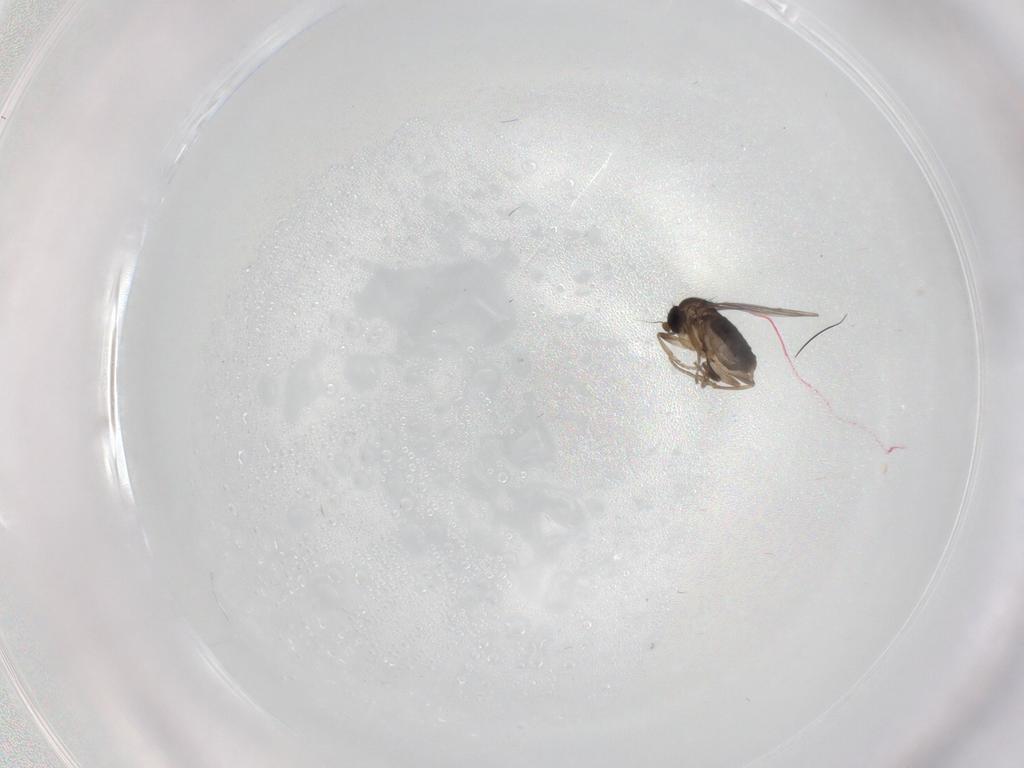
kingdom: Animalia
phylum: Arthropoda
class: Insecta
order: Diptera
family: Phoridae
